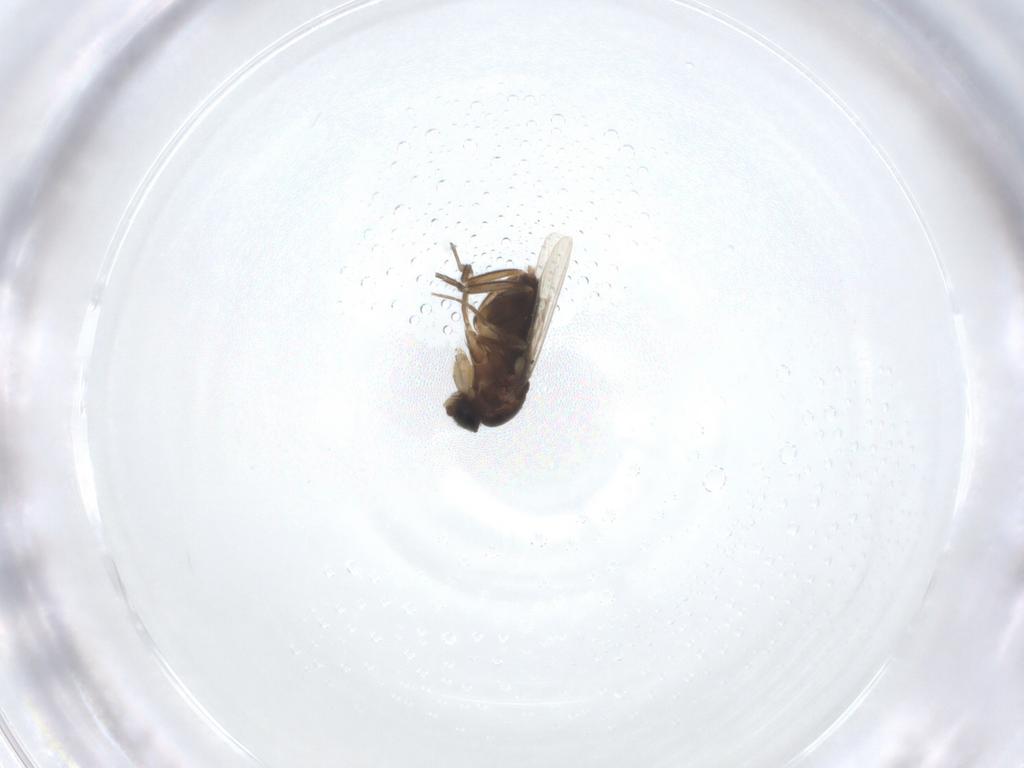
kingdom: Animalia
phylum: Arthropoda
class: Insecta
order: Diptera
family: Phoridae
